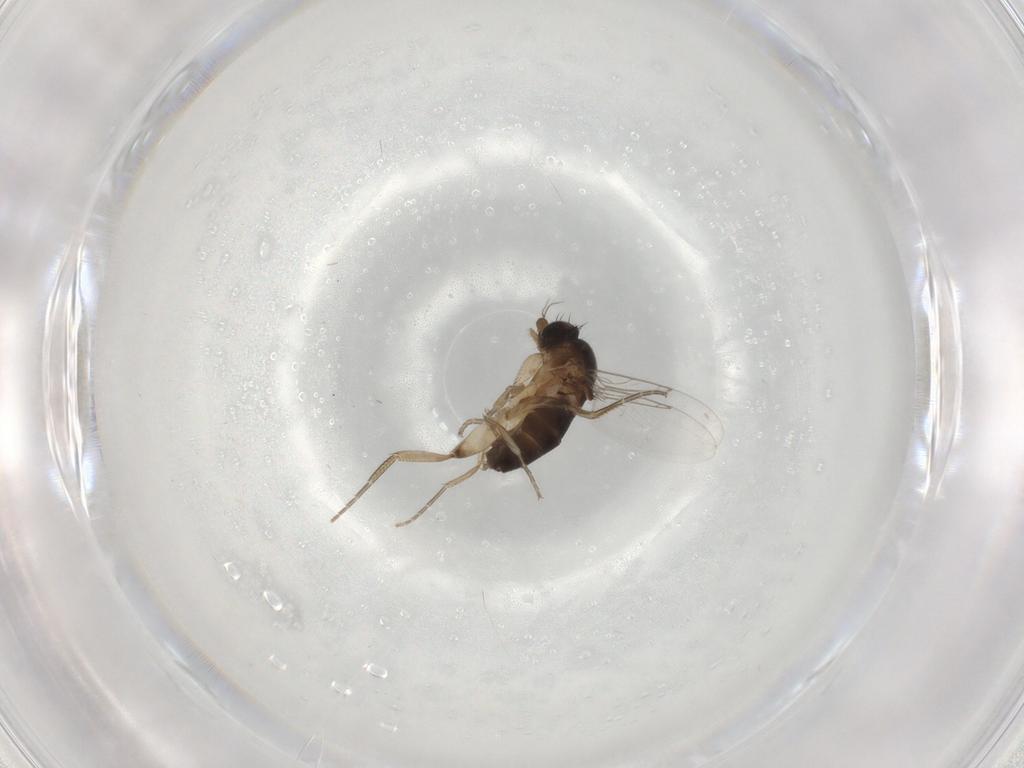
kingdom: Animalia
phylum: Arthropoda
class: Insecta
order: Diptera
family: Phoridae
